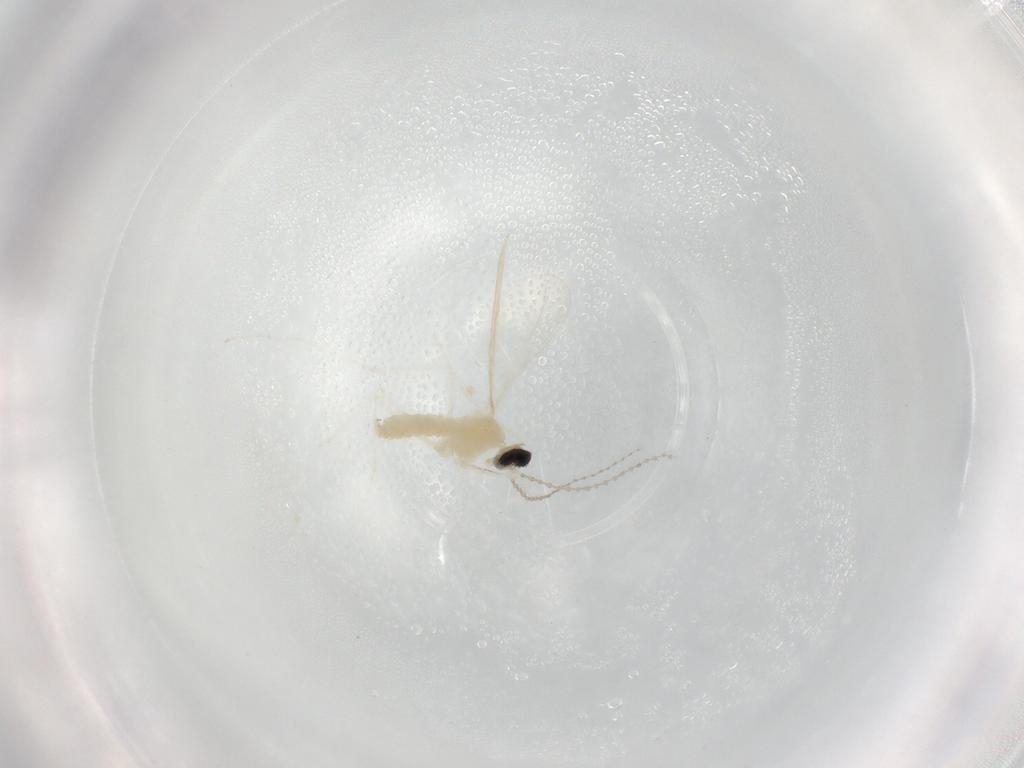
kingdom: Animalia
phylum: Arthropoda
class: Insecta
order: Diptera
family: Cecidomyiidae
